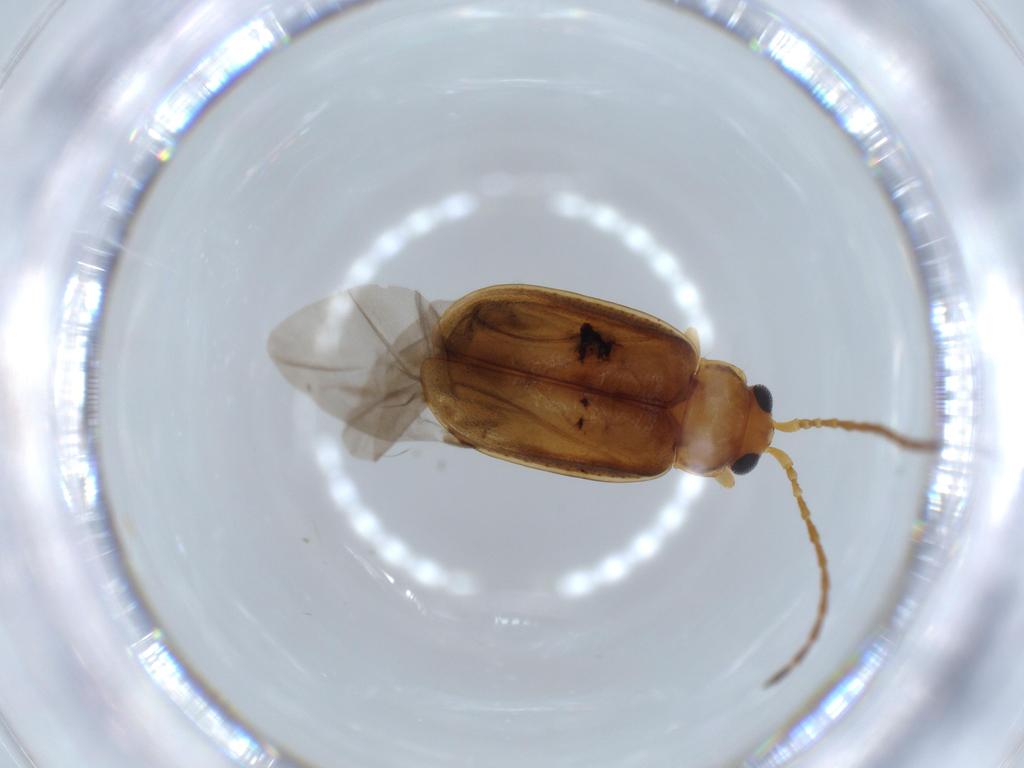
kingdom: Animalia
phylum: Arthropoda
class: Insecta
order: Coleoptera
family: Chrysomelidae
